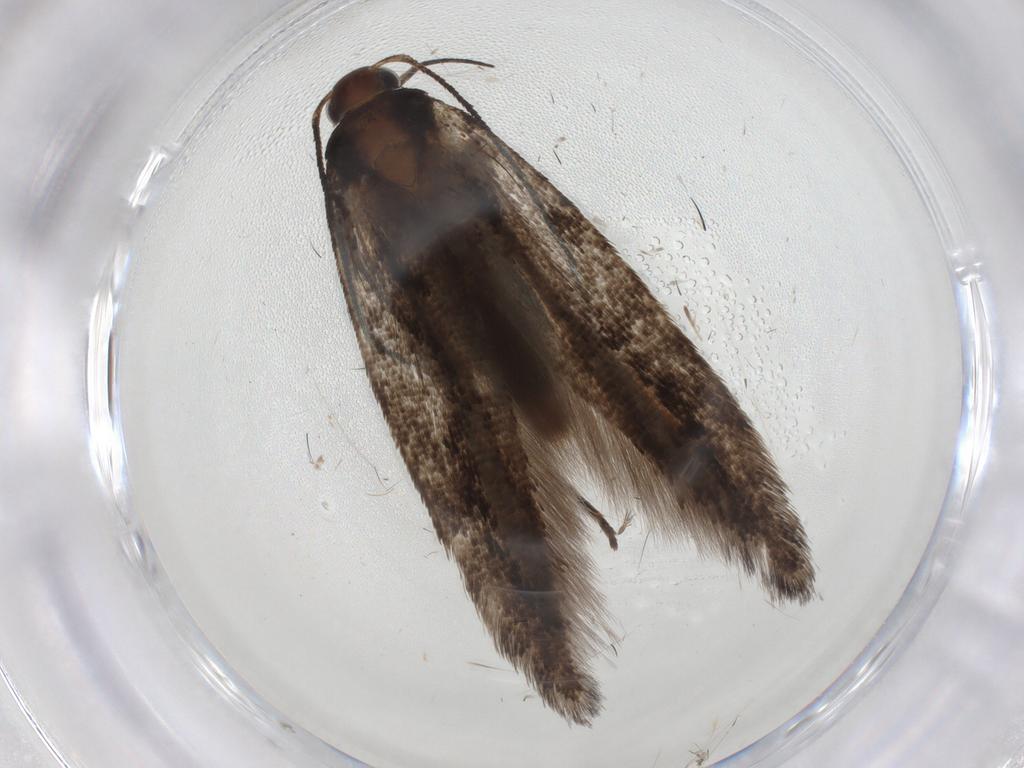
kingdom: Animalia
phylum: Arthropoda
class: Insecta
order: Lepidoptera
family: Gelechiidae
